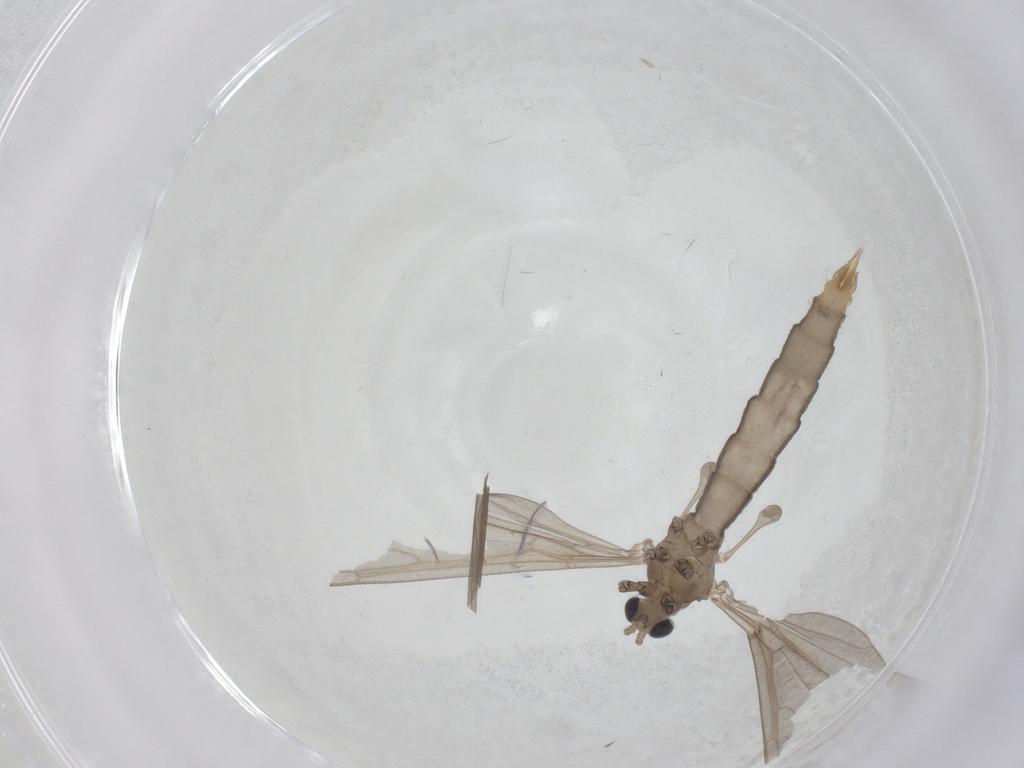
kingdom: Animalia
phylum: Arthropoda
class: Insecta
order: Diptera
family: Limoniidae
